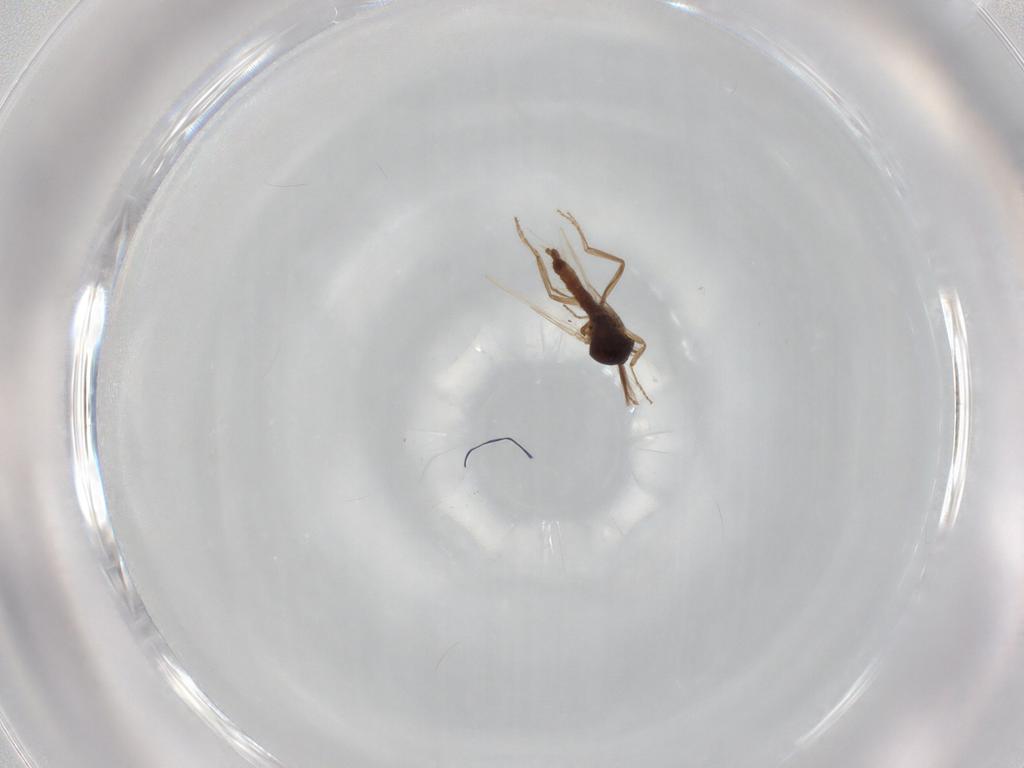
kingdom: Animalia
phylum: Arthropoda
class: Insecta
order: Diptera
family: Ceratopogonidae
